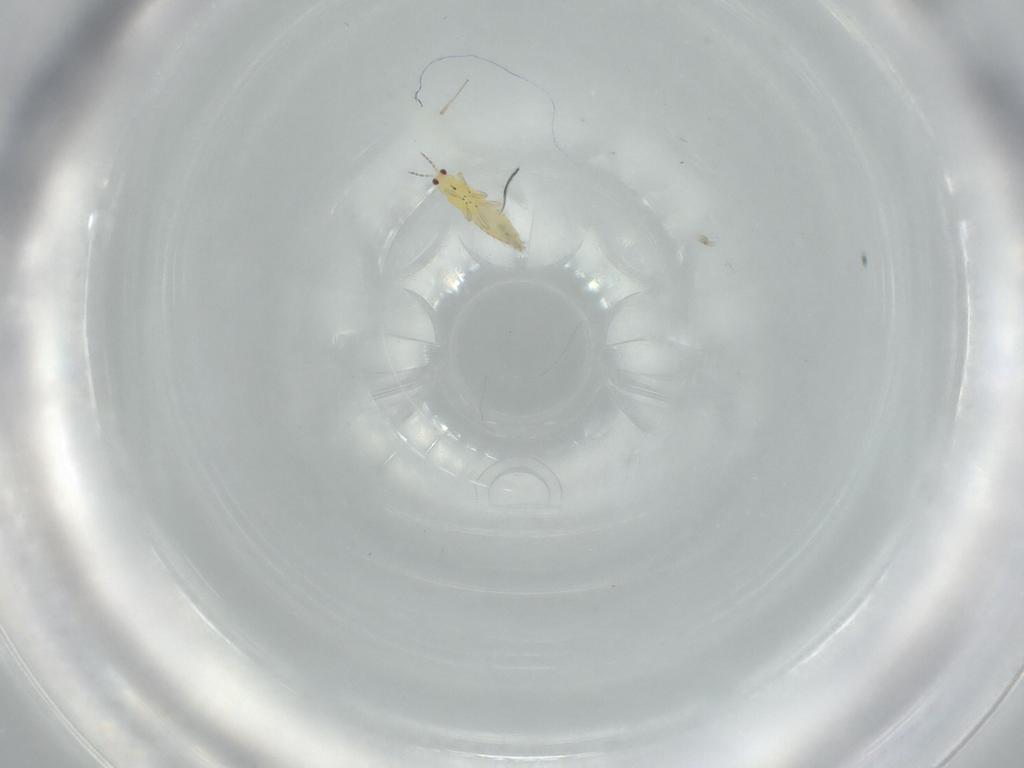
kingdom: Animalia
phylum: Arthropoda
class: Insecta
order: Thysanoptera
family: Thripidae
